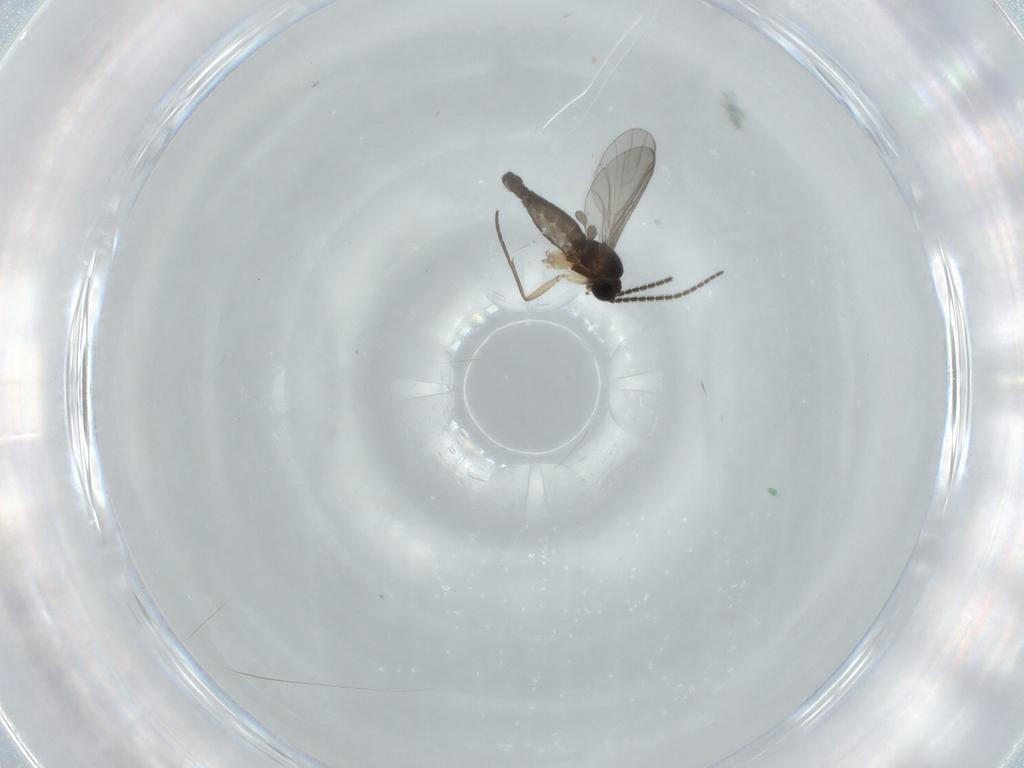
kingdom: Animalia
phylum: Arthropoda
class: Insecta
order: Diptera
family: Sciaridae
